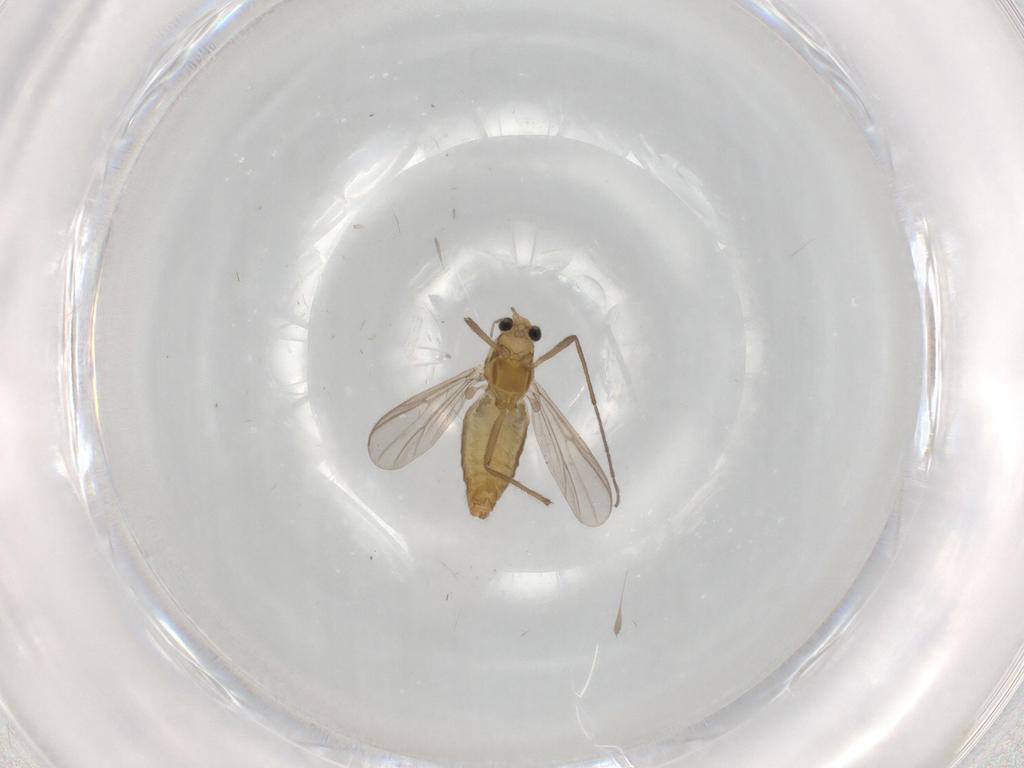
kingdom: Animalia
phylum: Arthropoda
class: Insecta
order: Diptera
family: Chironomidae
